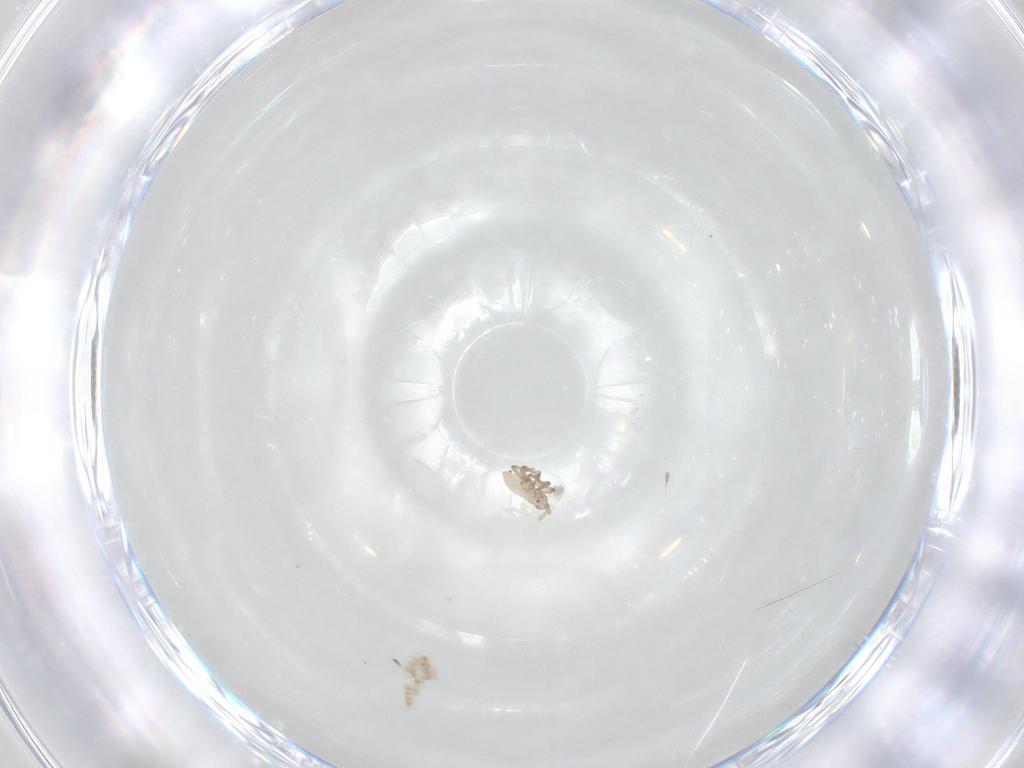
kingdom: Animalia
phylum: Arthropoda
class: Insecta
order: Hemiptera
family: Aphididae
